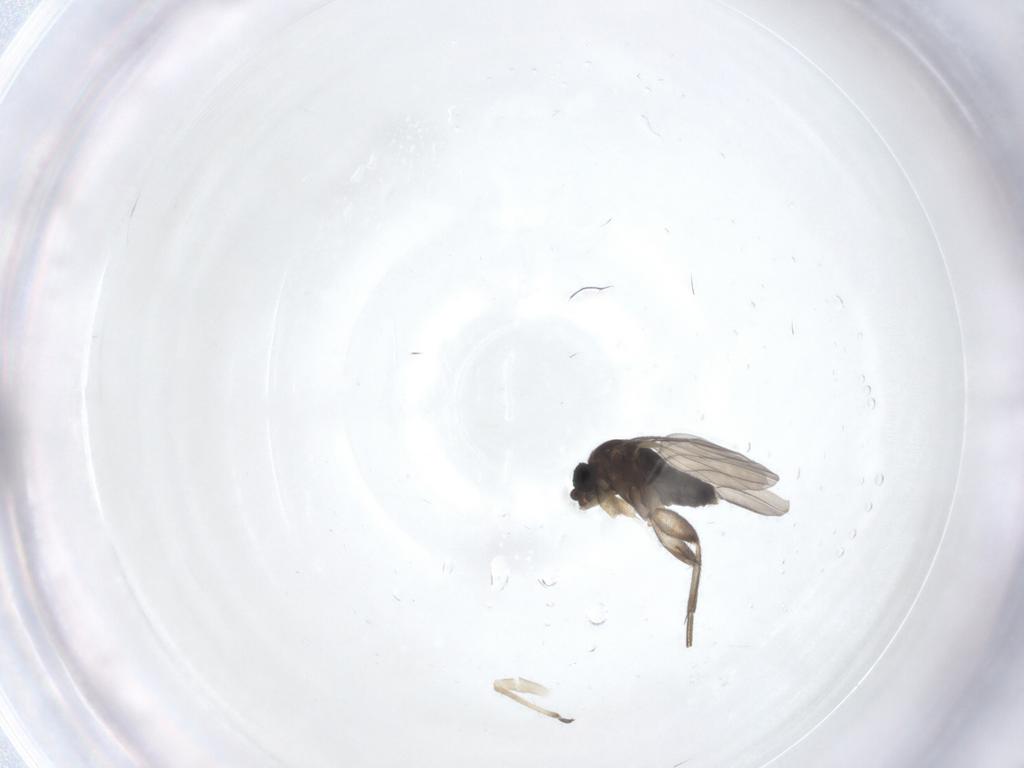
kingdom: Animalia
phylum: Arthropoda
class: Insecta
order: Diptera
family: Phoridae
